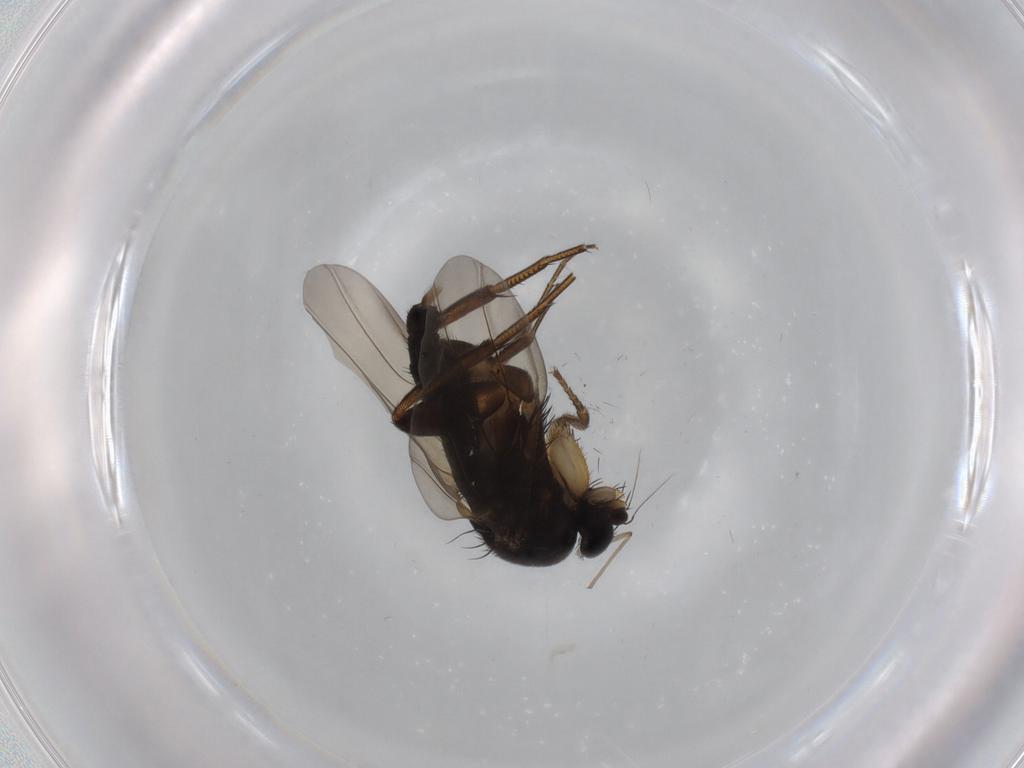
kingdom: Animalia
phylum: Arthropoda
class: Insecta
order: Diptera
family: Phoridae
